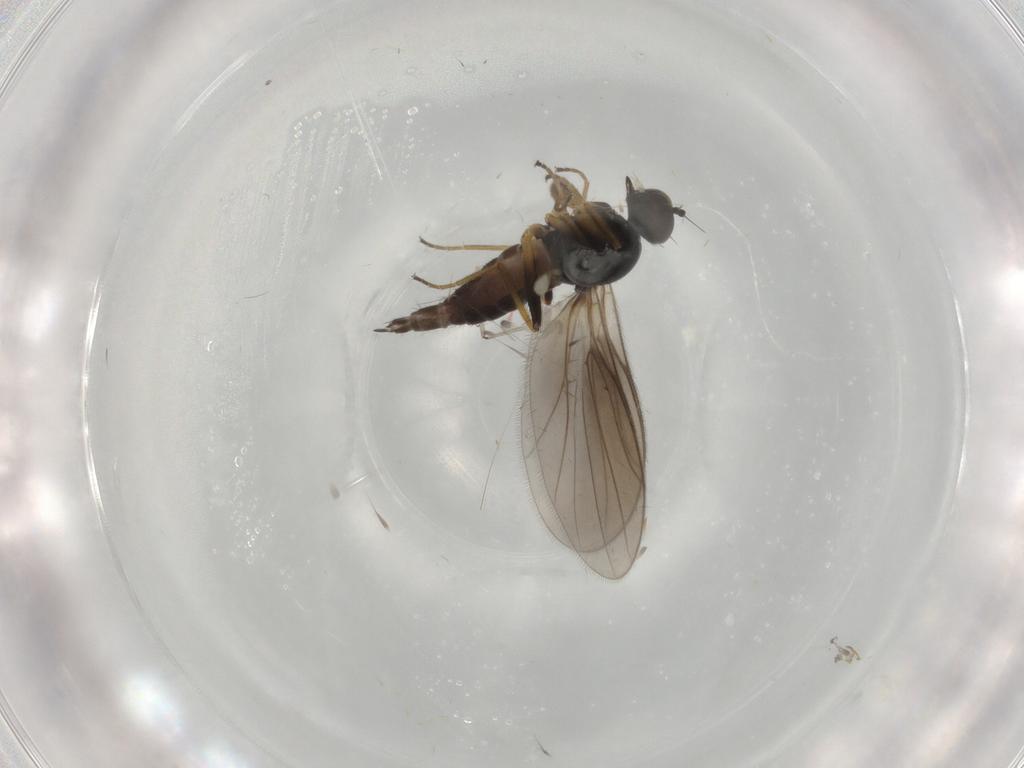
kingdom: Animalia
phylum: Arthropoda
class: Insecta
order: Diptera
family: Hybotidae
